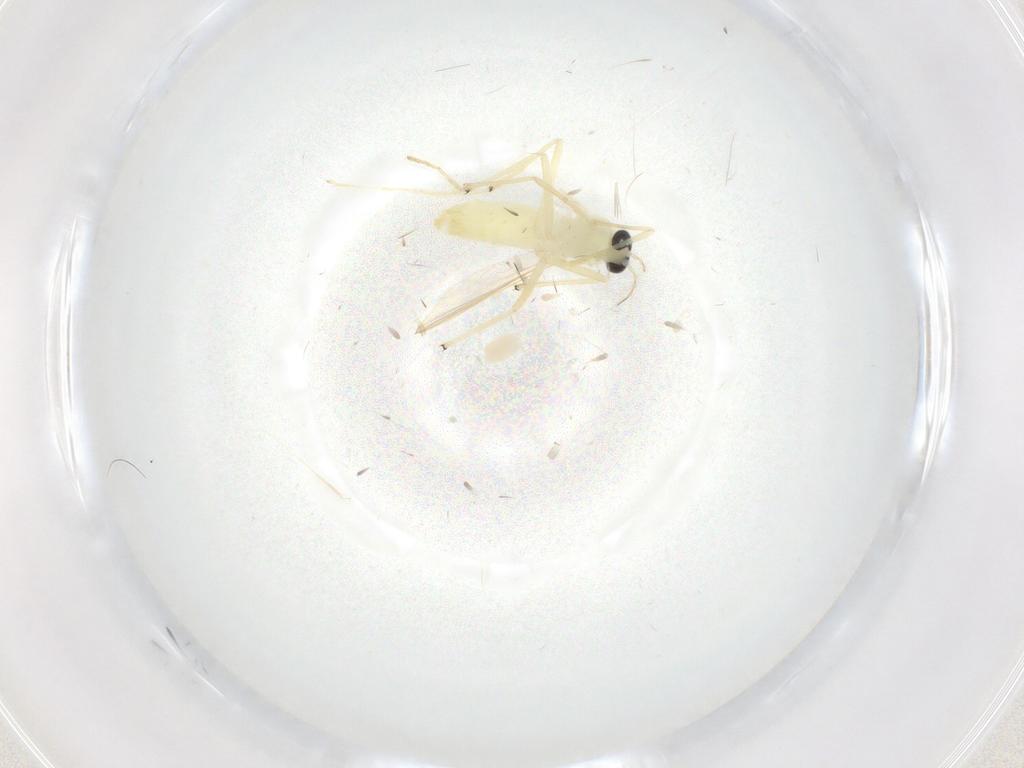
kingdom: Animalia
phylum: Arthropoda
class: Insecta
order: Diptera
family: Chironomidae
